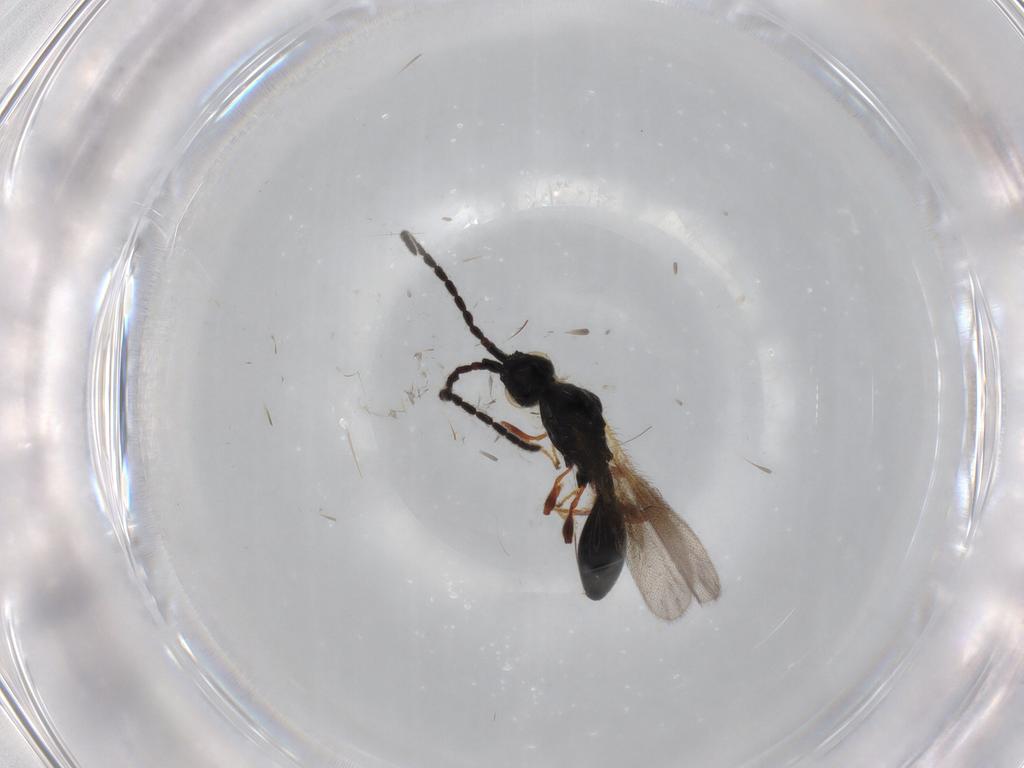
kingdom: Animalia
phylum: Arthropoda
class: Insecta
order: Hymenoptera
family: Diapriidae
